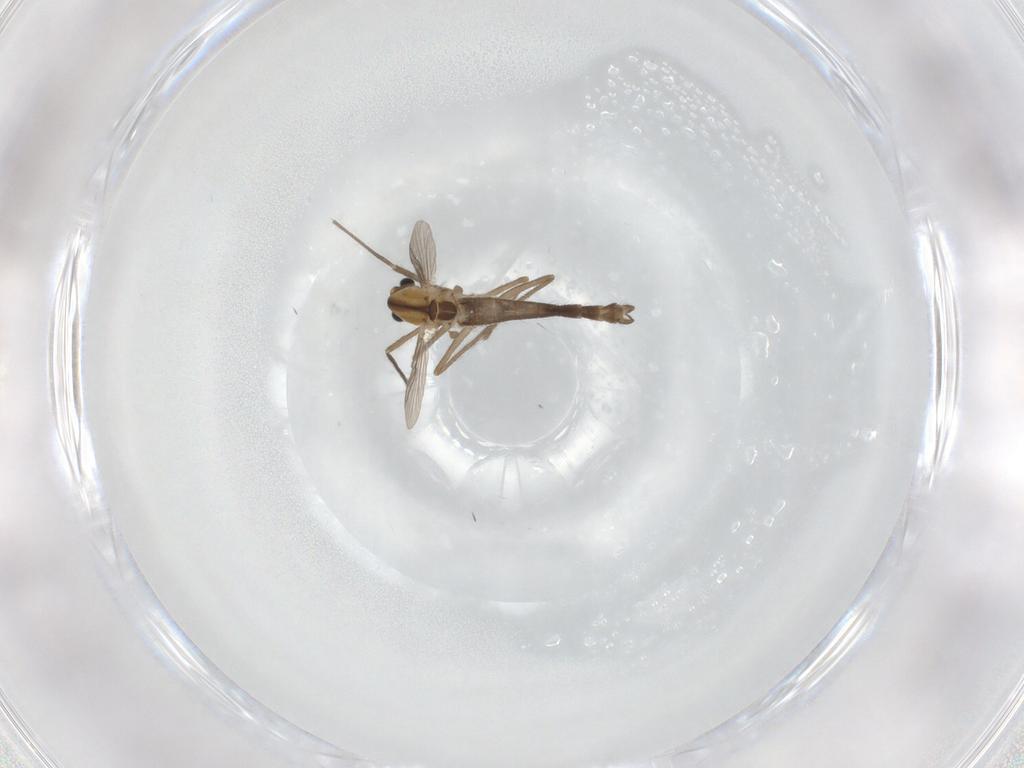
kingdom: Animalia
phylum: Arthropoda
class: Insecta
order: Diptera
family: Chironomidae
